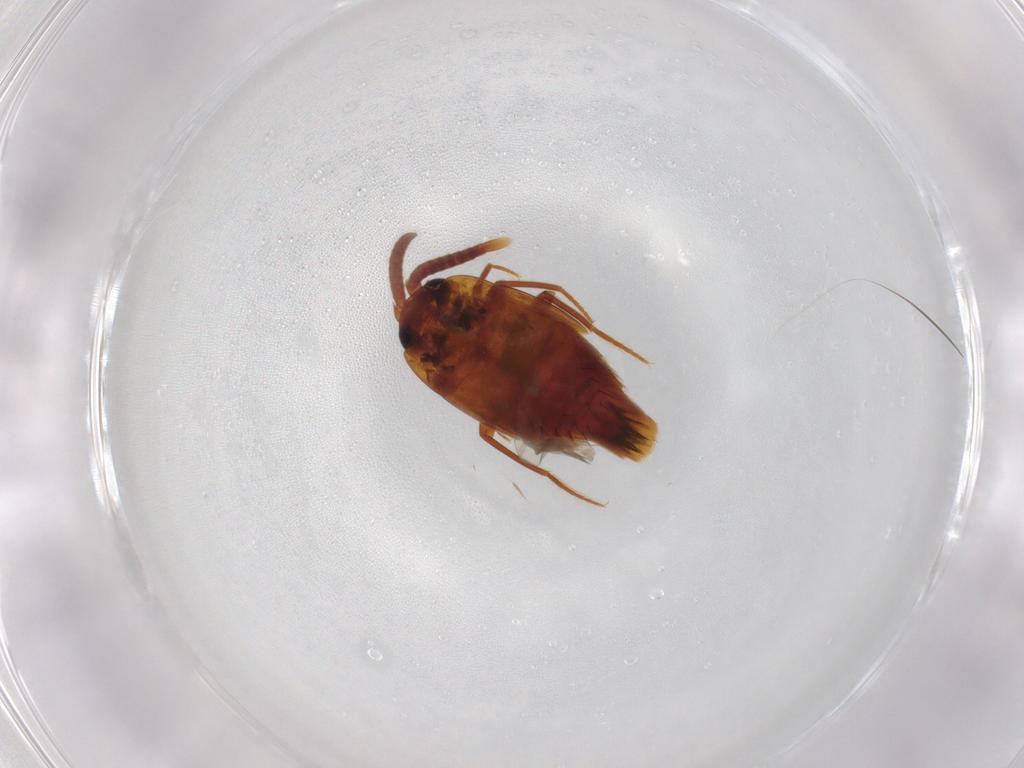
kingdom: Animalia
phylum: Arthropoda
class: Insecta
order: Coleoptera
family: Staphylinidae
